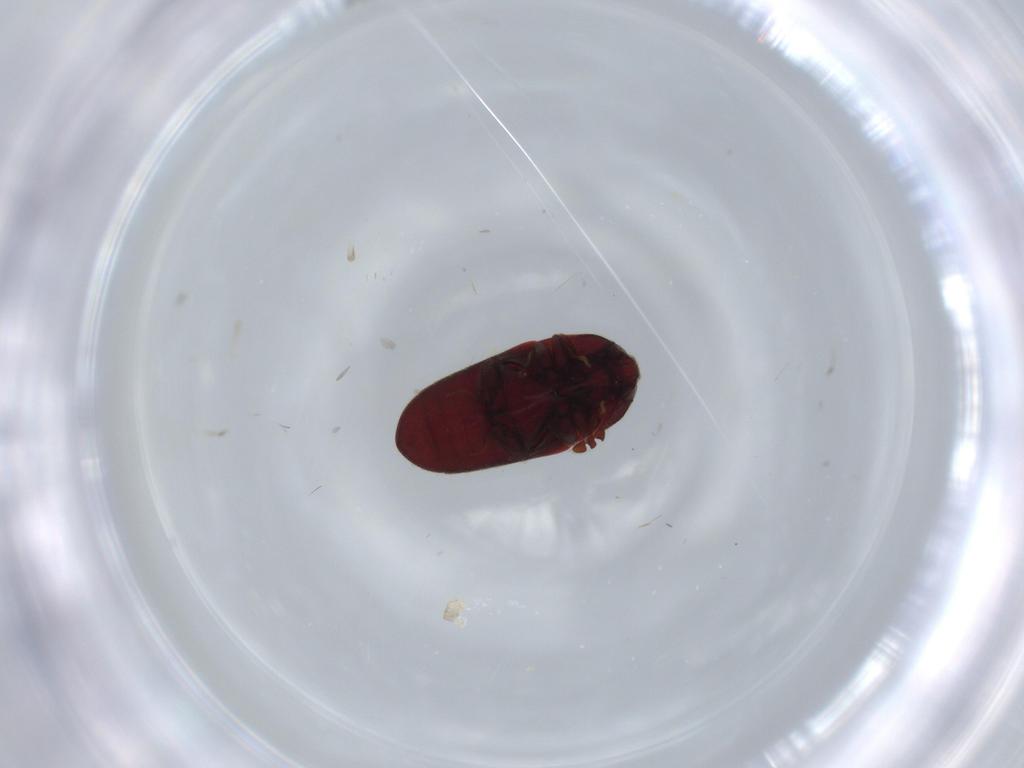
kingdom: Animalia
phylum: Arthropoda
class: Insecta
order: Coleoptera
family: Throscidae
